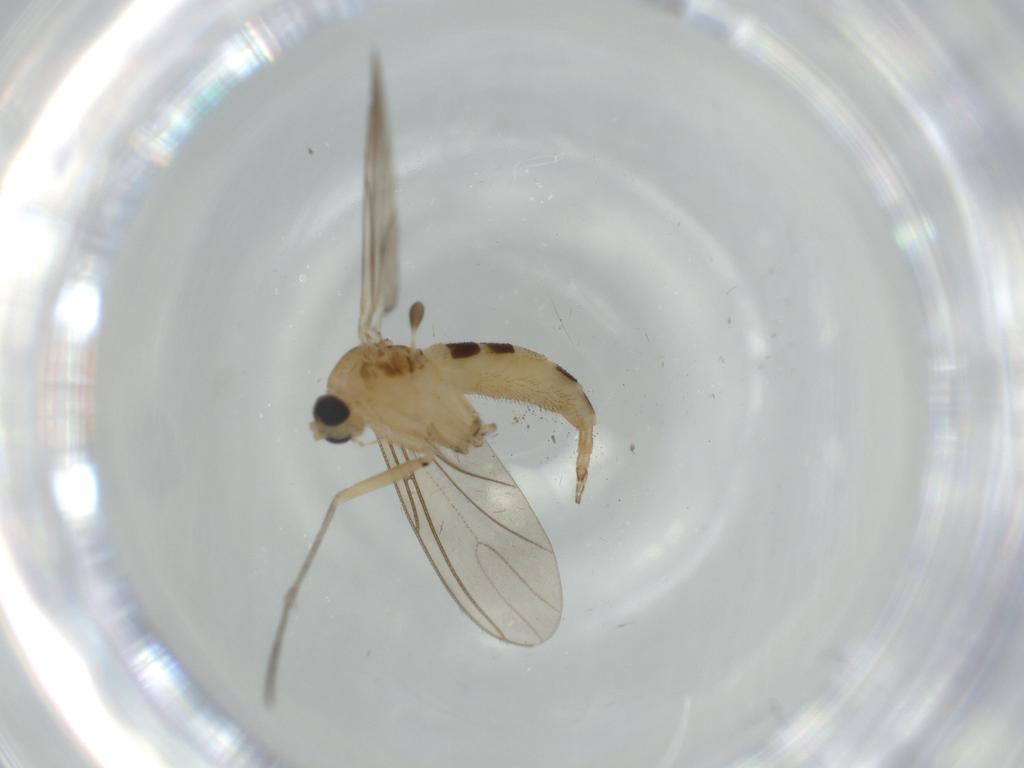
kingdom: Animalia
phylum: Arthropoda
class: Insecta
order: Diptera
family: Sciaridae
